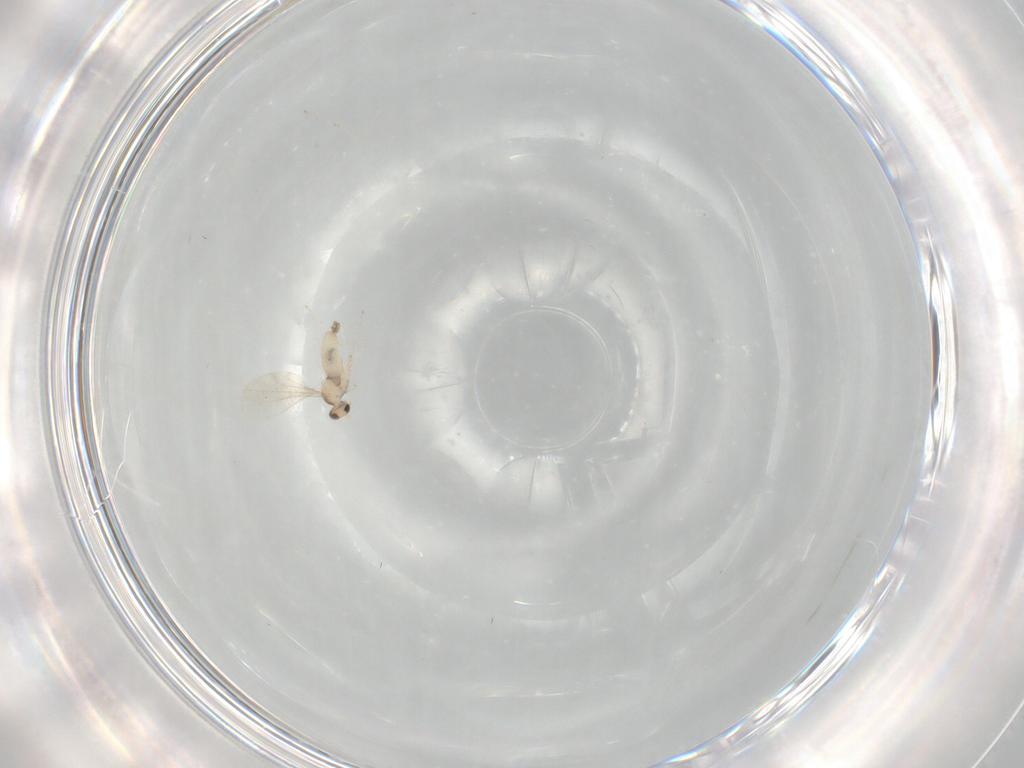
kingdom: Animalia
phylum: Arthropoda
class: Insecta
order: Diptera
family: Cecidomyiidae
